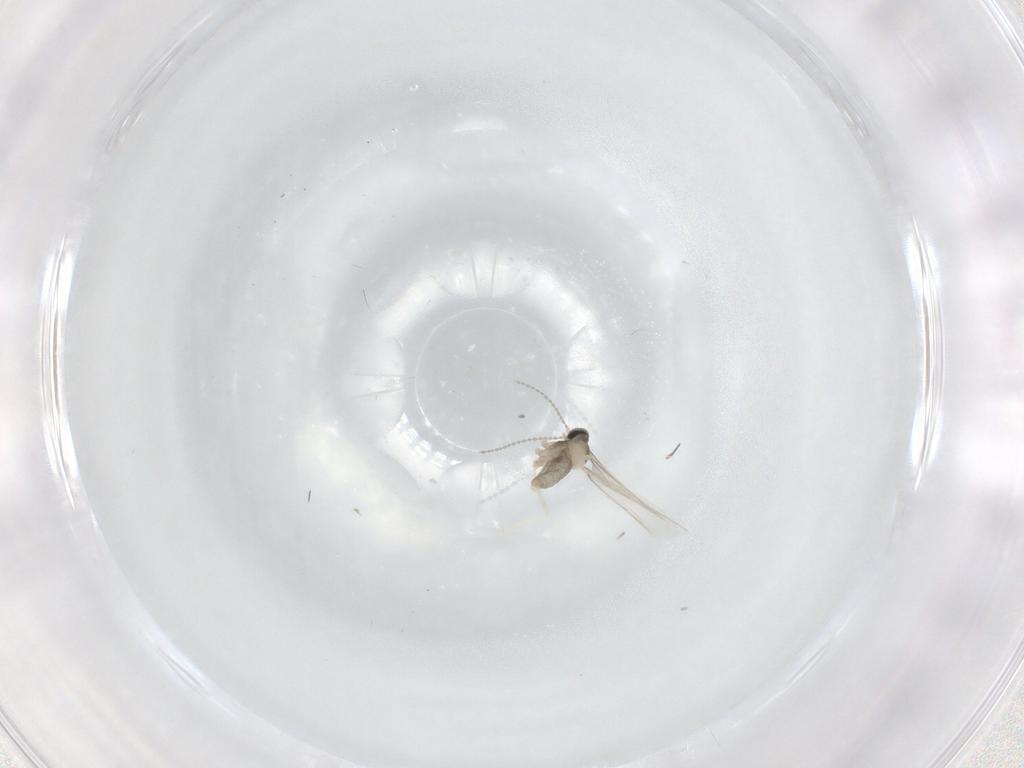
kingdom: Animalia
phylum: Arthropoda
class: Insecta
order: Diptera
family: Cecidomyiidae
